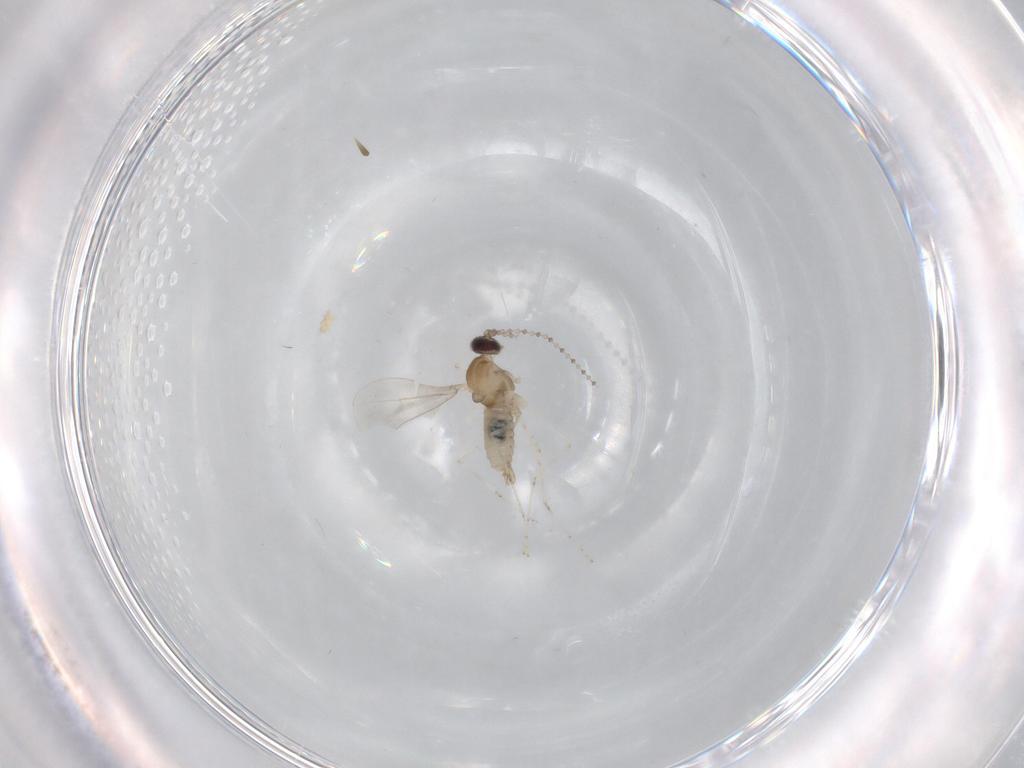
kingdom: Animalia
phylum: Arthropoda
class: Insecta
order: Diptera
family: Cecidomyiidae
